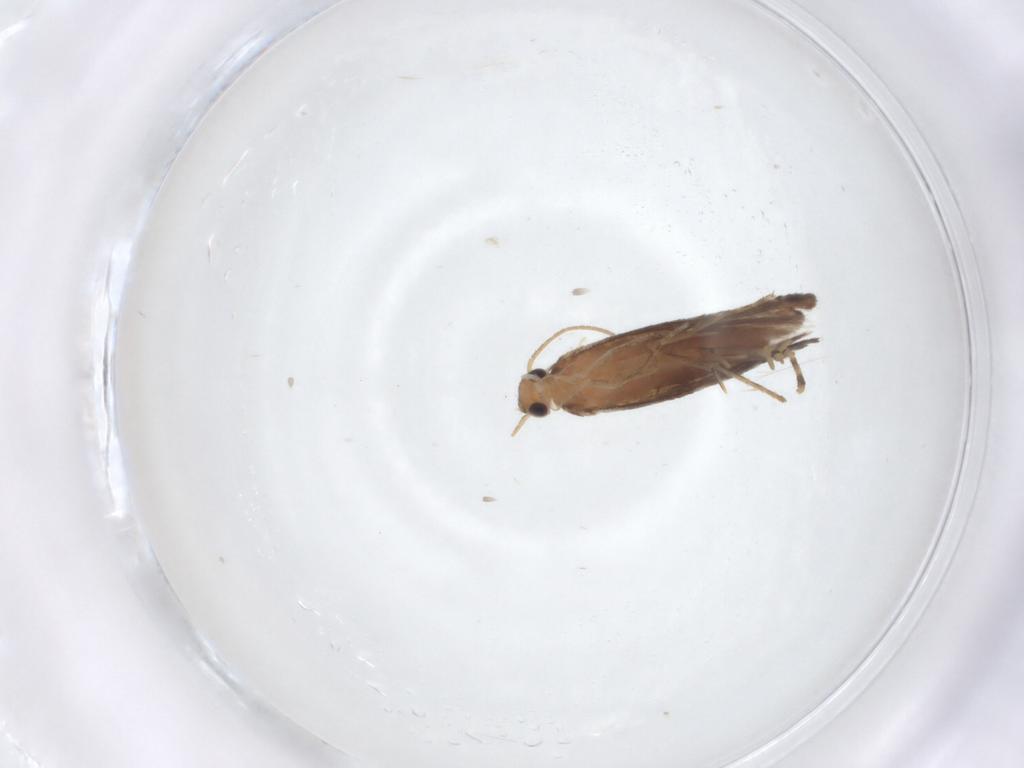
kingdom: Animalia
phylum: Arthropoda
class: Insecta
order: Lepidoptera
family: Glyphipterigidae
